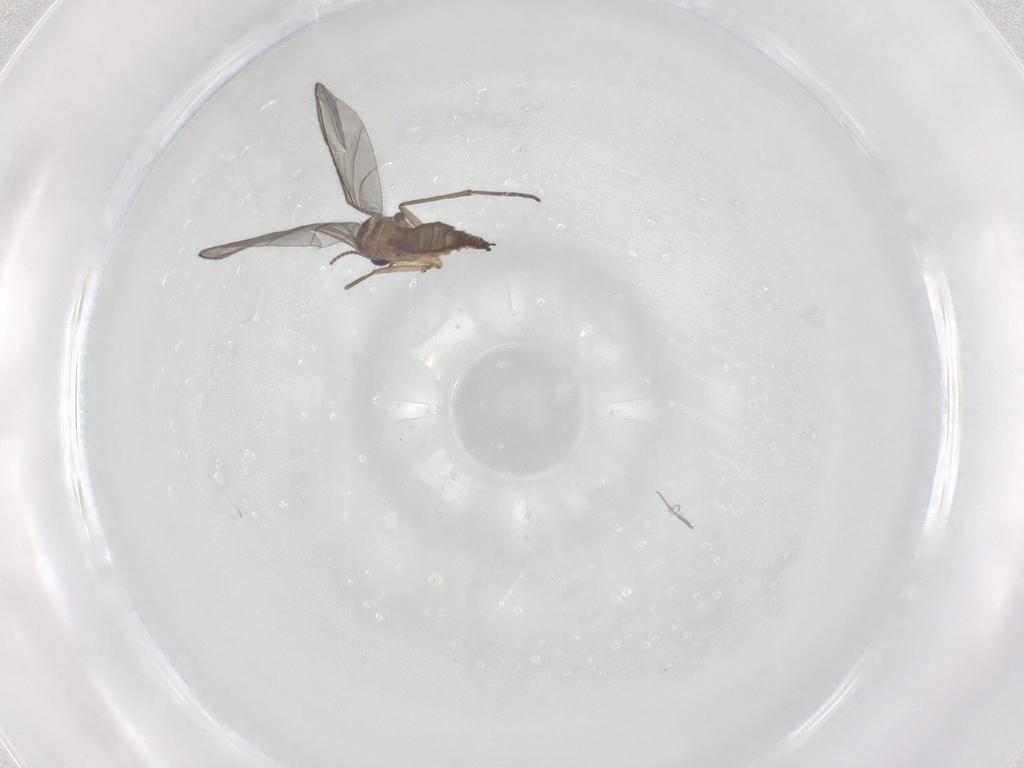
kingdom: Animalia
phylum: Arthropoda
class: Insecta
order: Diptera
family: Sciaridae
